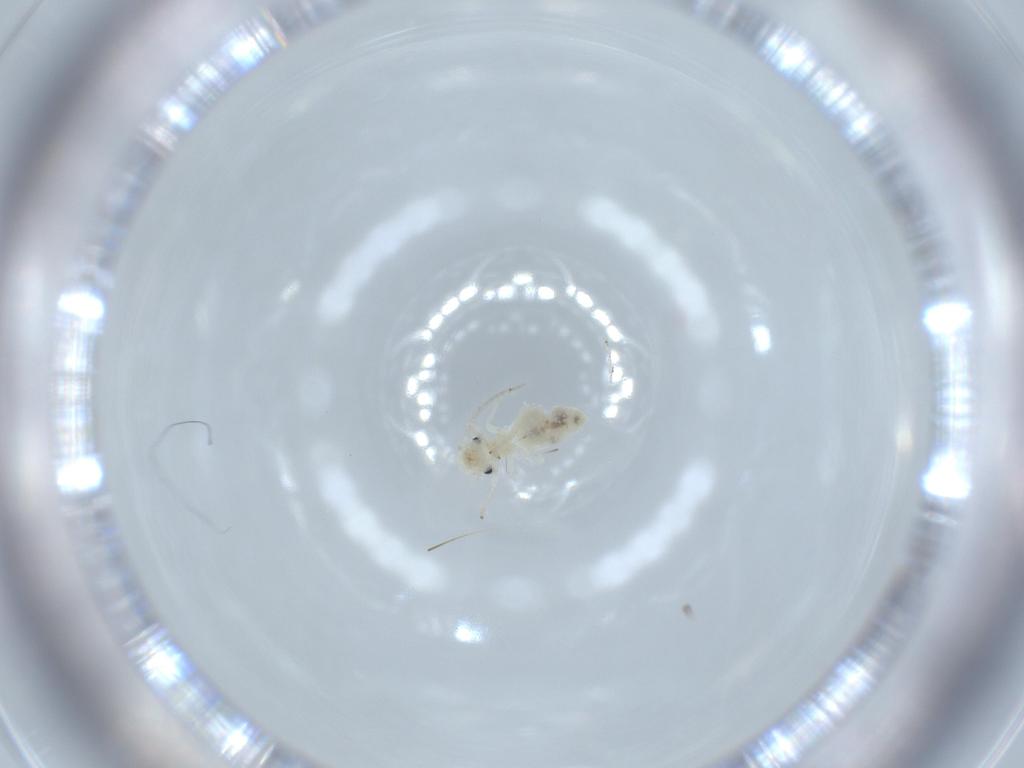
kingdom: Animalia
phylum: Arthropoda
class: Insecta
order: Psocodea
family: Caeciliusidae
